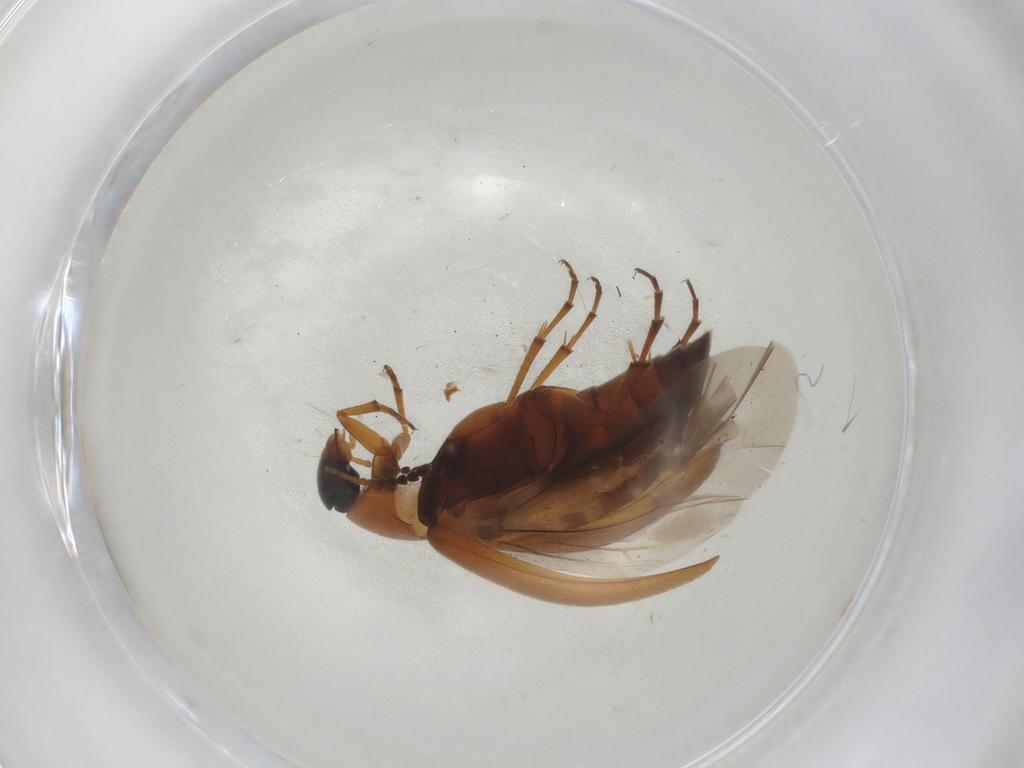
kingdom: Animalia
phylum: Arthropoda
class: Insecta
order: Coleoptera
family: Scraptiidae
